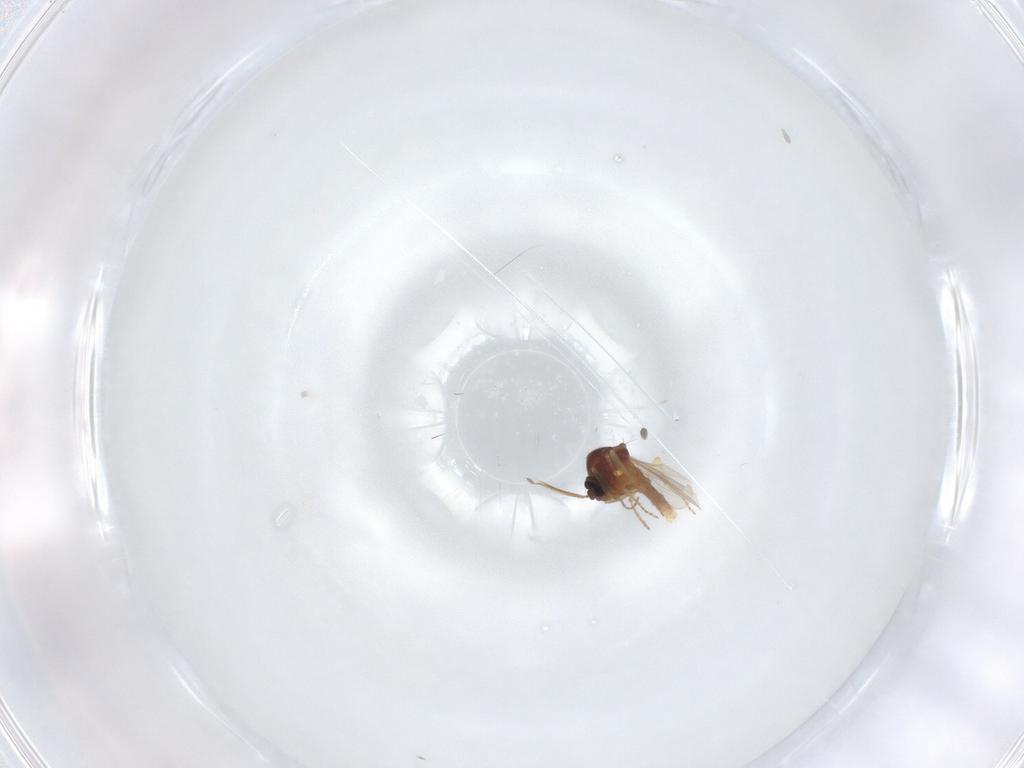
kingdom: Animalia
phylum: Arthropoda
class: Insecta
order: Diptera
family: Ceratopogonidae
